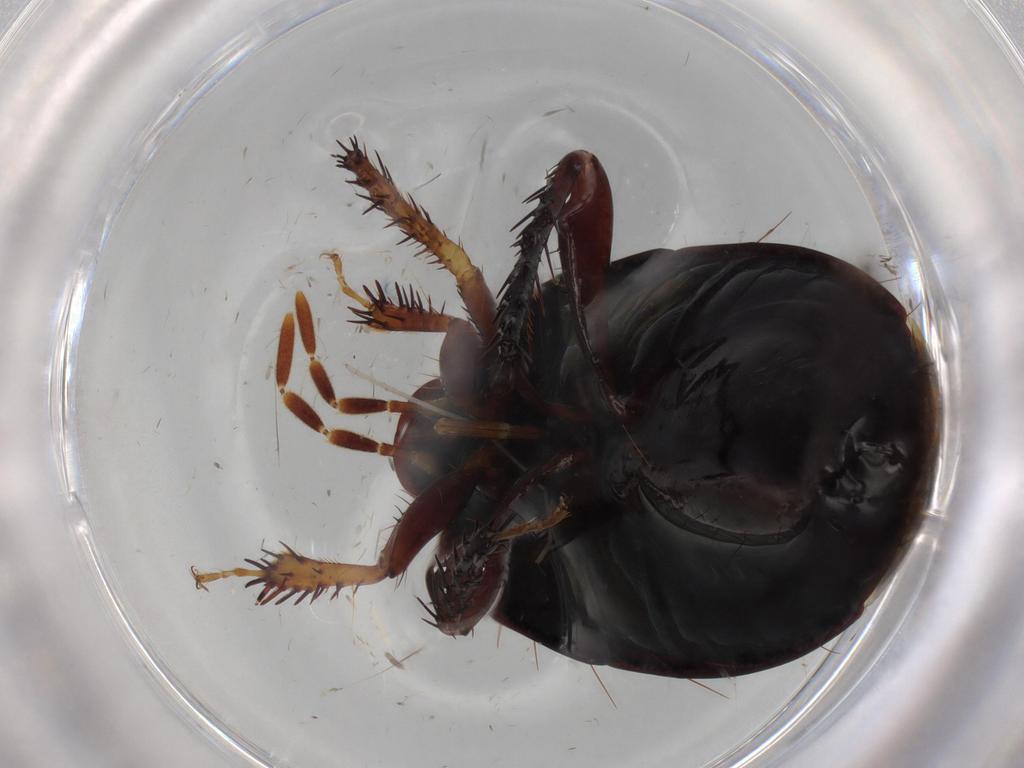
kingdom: Animalia
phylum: Arthropoda
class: Insecta
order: Hemiptera
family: Cydnidae
